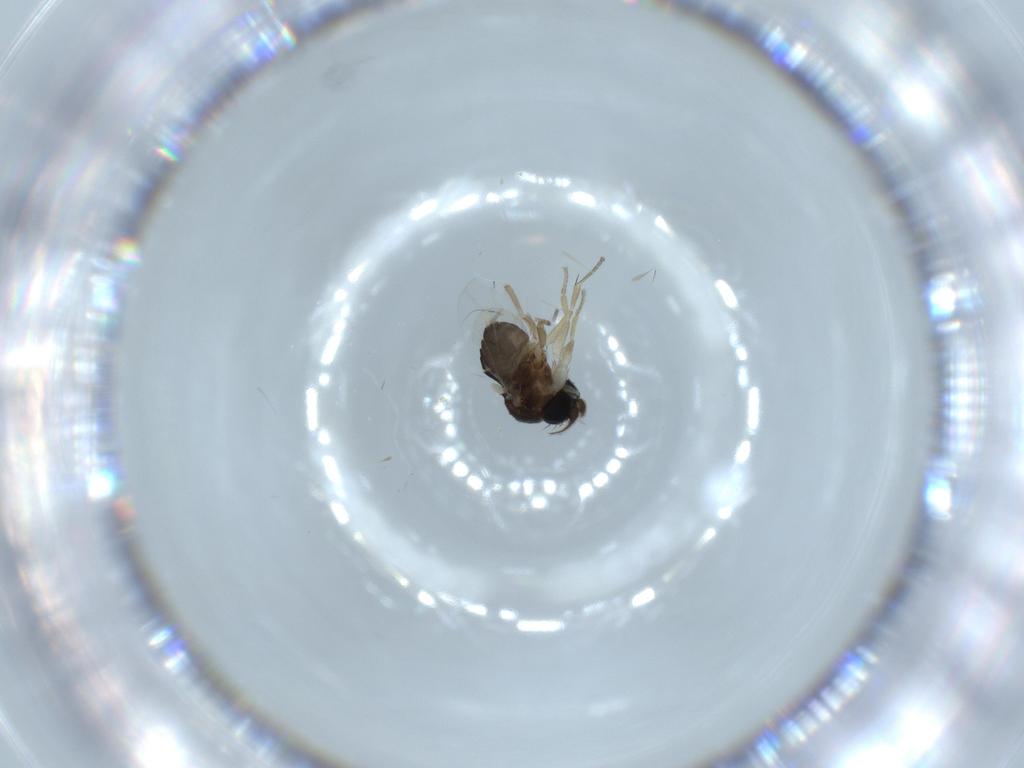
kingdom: Animalia
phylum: Arthropoda
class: Insecta
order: Diptera
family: Phoridae
